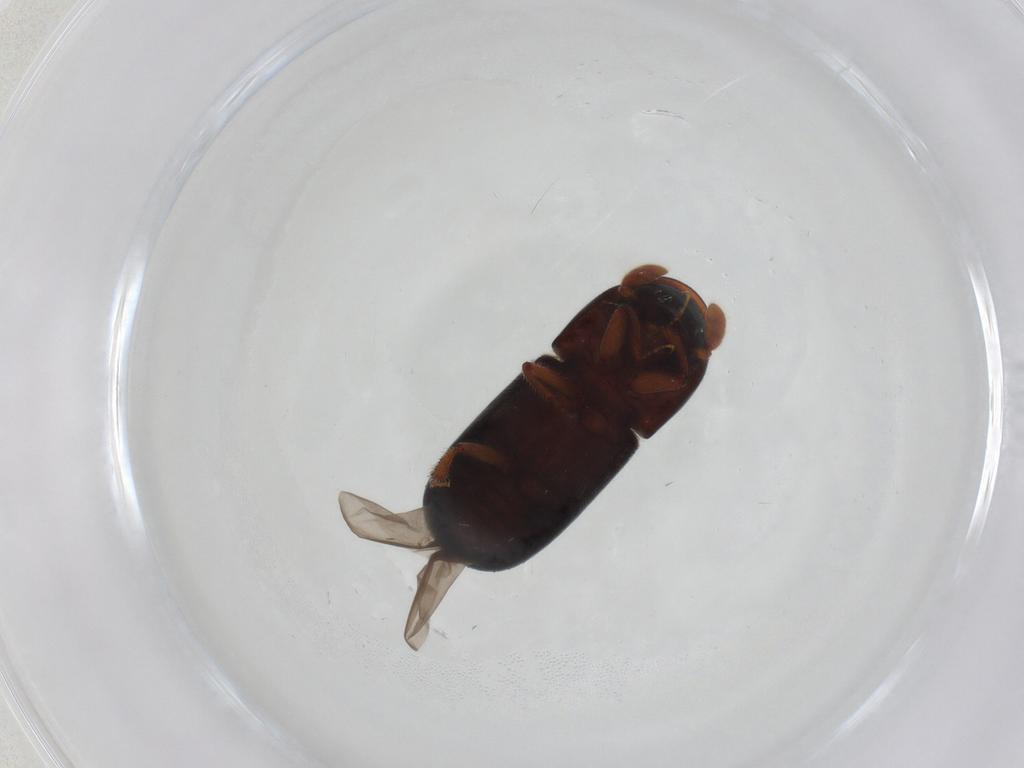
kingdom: Animalia
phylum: Arthropoda
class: Insecta
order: Coleoptera
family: Curculionidae
